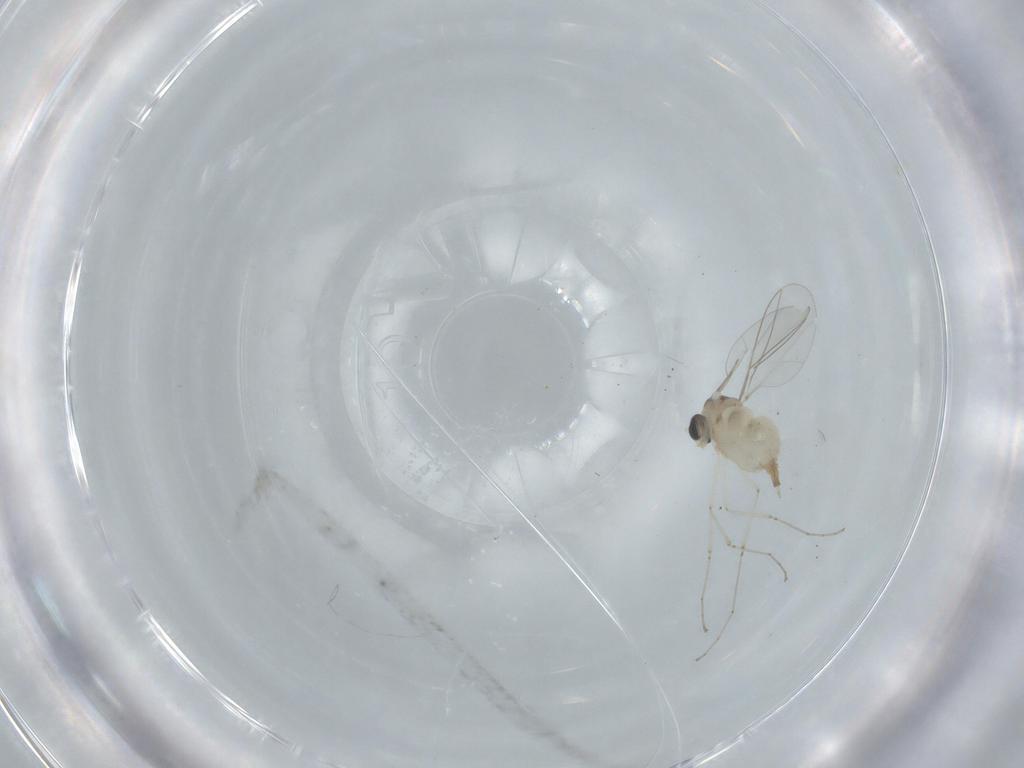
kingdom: Animalia
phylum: Arthropoda
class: Insecta
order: Diptera
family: Cecidomyiidae
